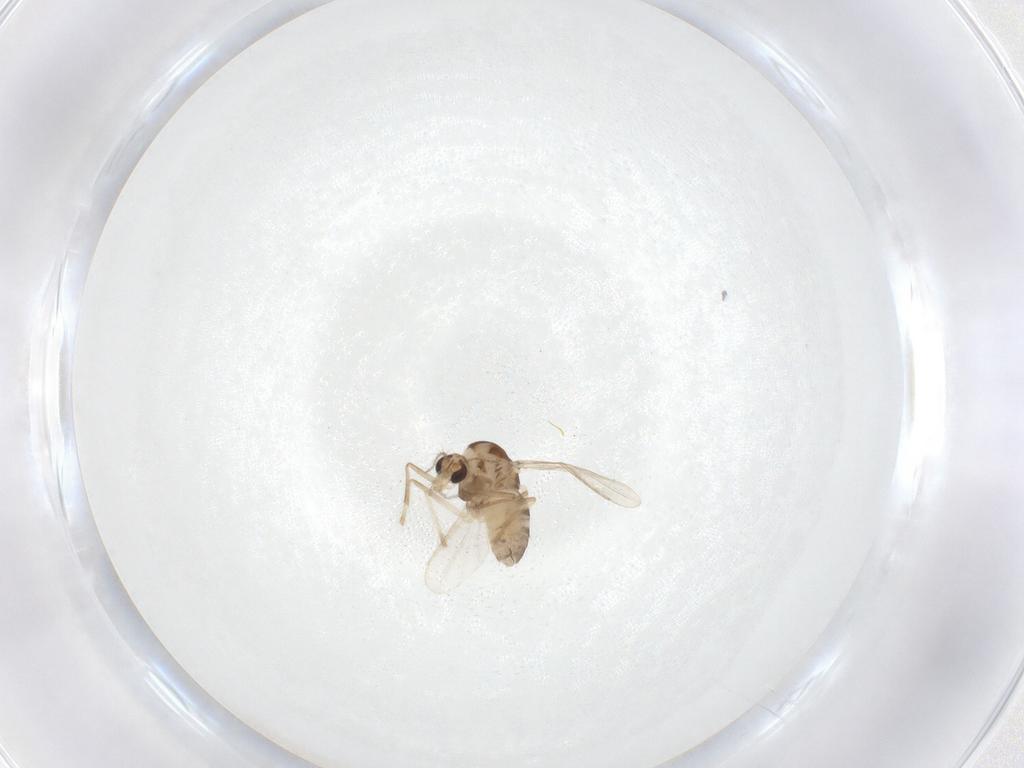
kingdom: Animalia
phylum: Arthropoda
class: Insecta
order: Diptera
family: Chironomidae
